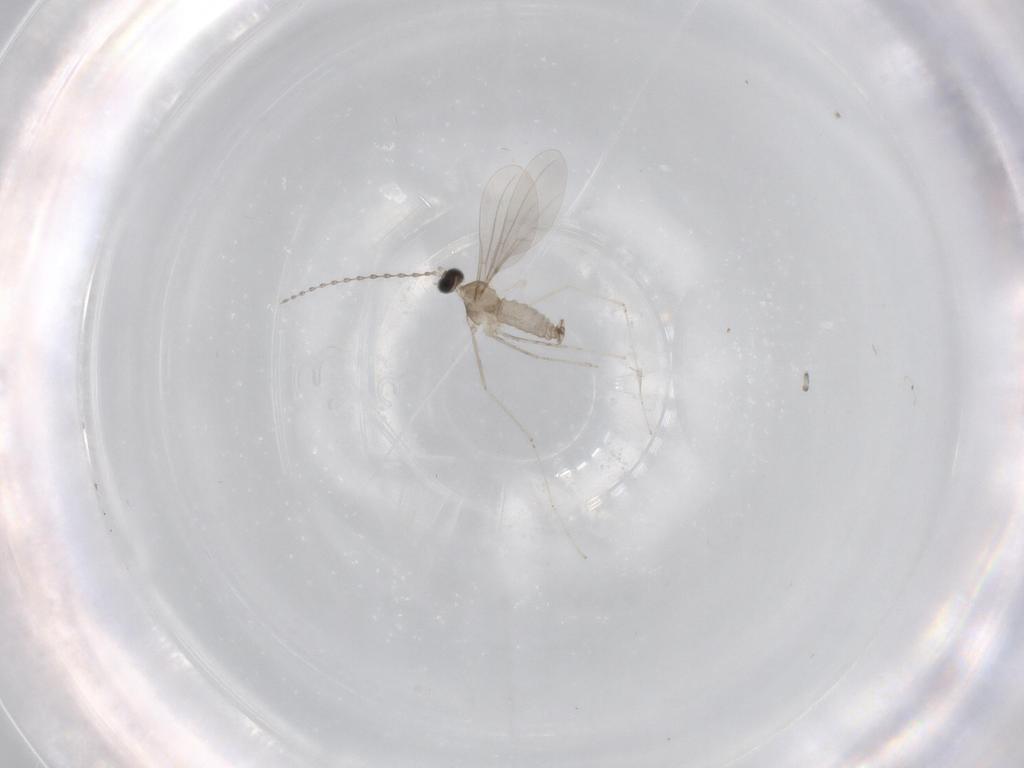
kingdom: Animalia
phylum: Arthropoda
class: Insecta
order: Diptera
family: Cecidomyiidae
